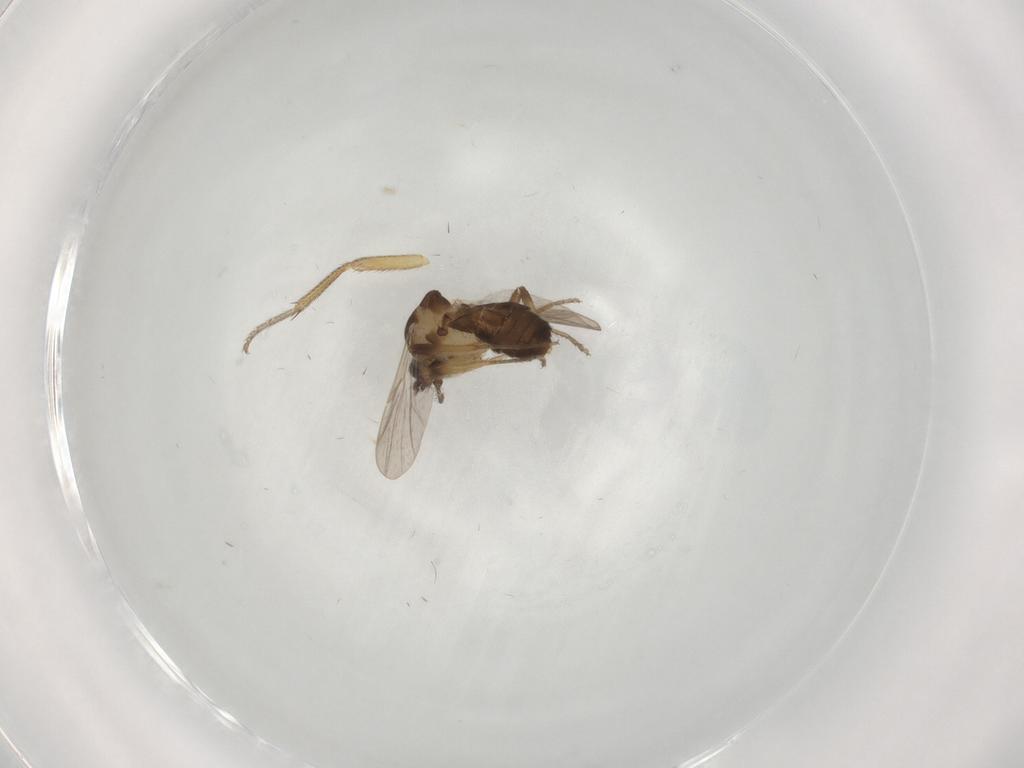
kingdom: Animalia
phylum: Arthropoda
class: Insecta
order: Diptera
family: Ceratopogonidae
